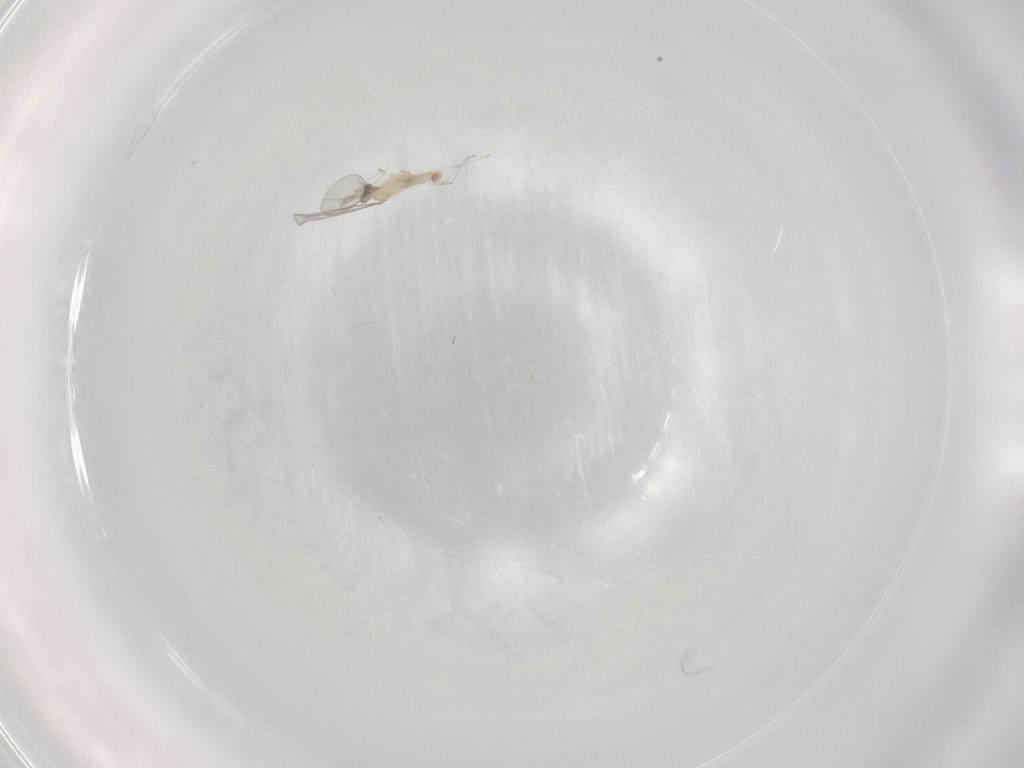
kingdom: Animalia
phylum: Arthropoda
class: Insecta
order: Diptera
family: Cecidomyiidae
